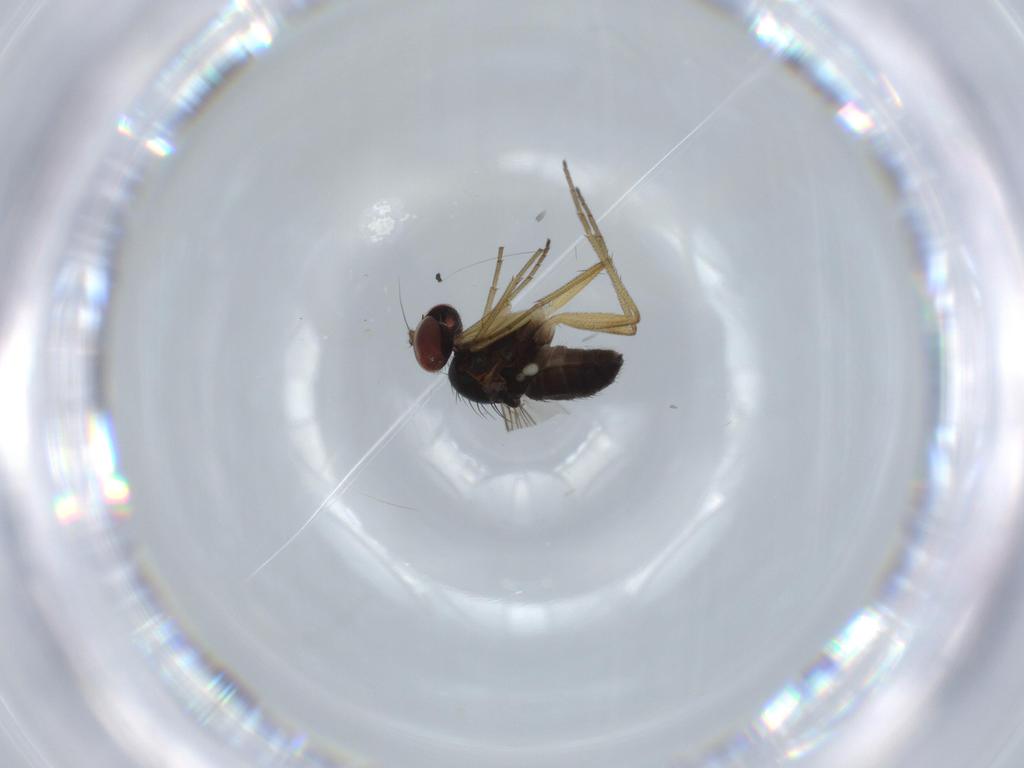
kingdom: Animalia
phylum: Arthropoda
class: Insecta
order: Diptera
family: Sciaridae
